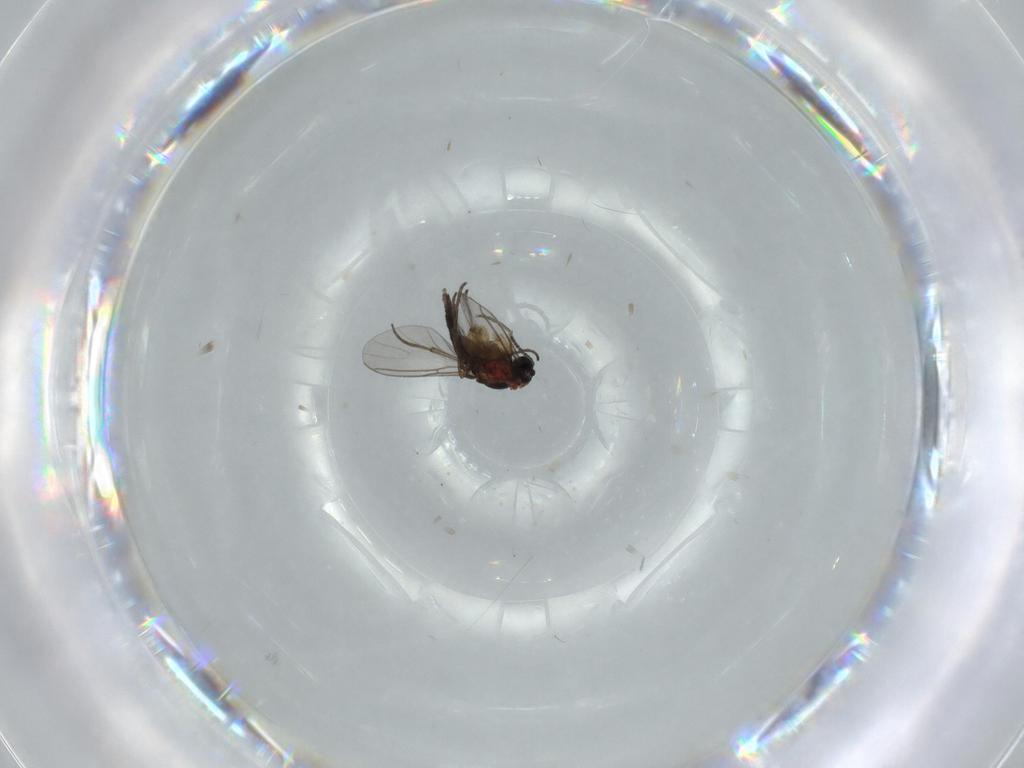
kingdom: Animalia
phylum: Arthropoda
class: Insecta
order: Diptera
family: Sciaridae
